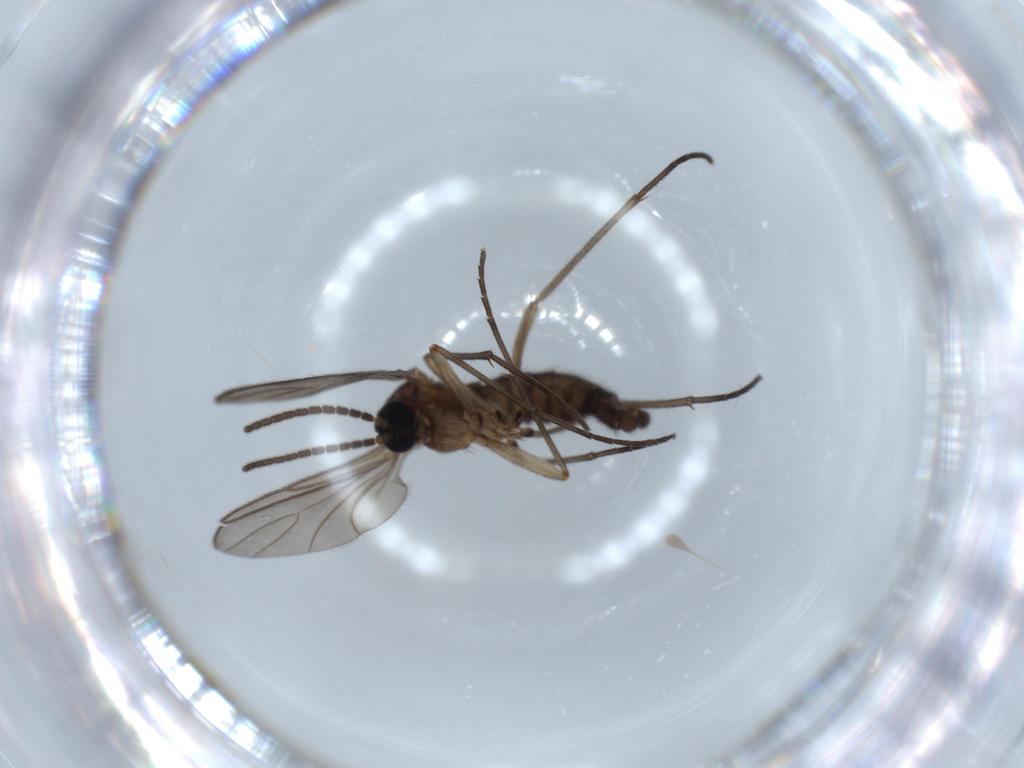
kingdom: Animalia
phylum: Arthropoda
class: Insecta
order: Diptera
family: Sciaridae
